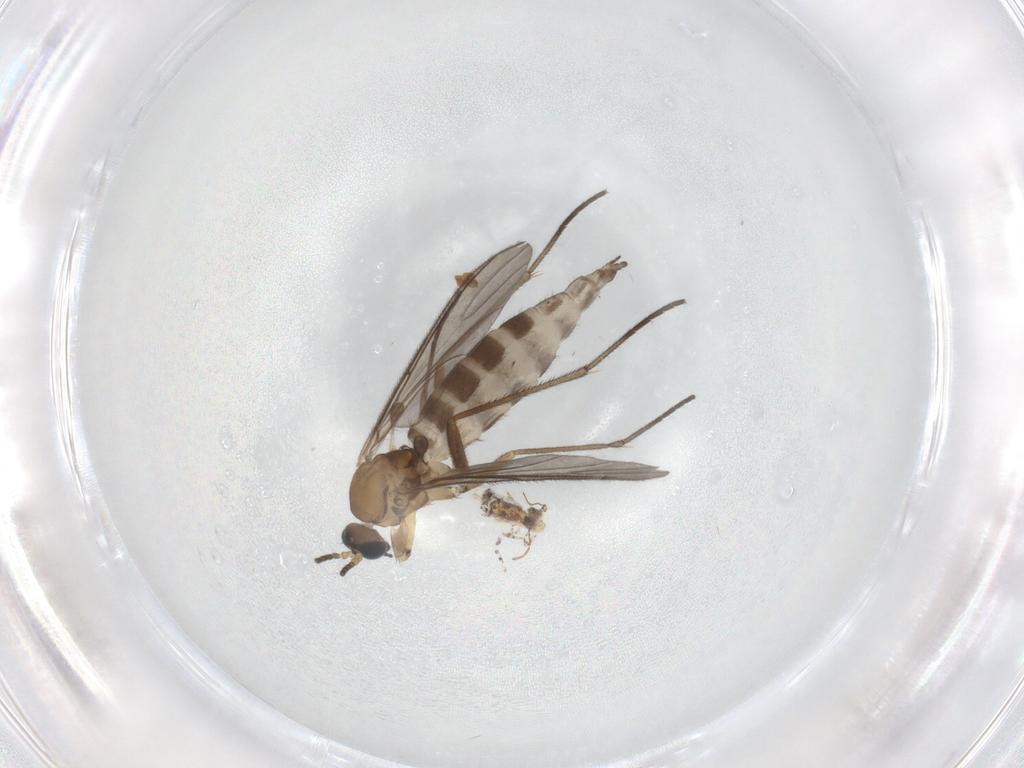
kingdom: Animalia
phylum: Arthropoda
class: Insecta
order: Diptera
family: Sciaridae
